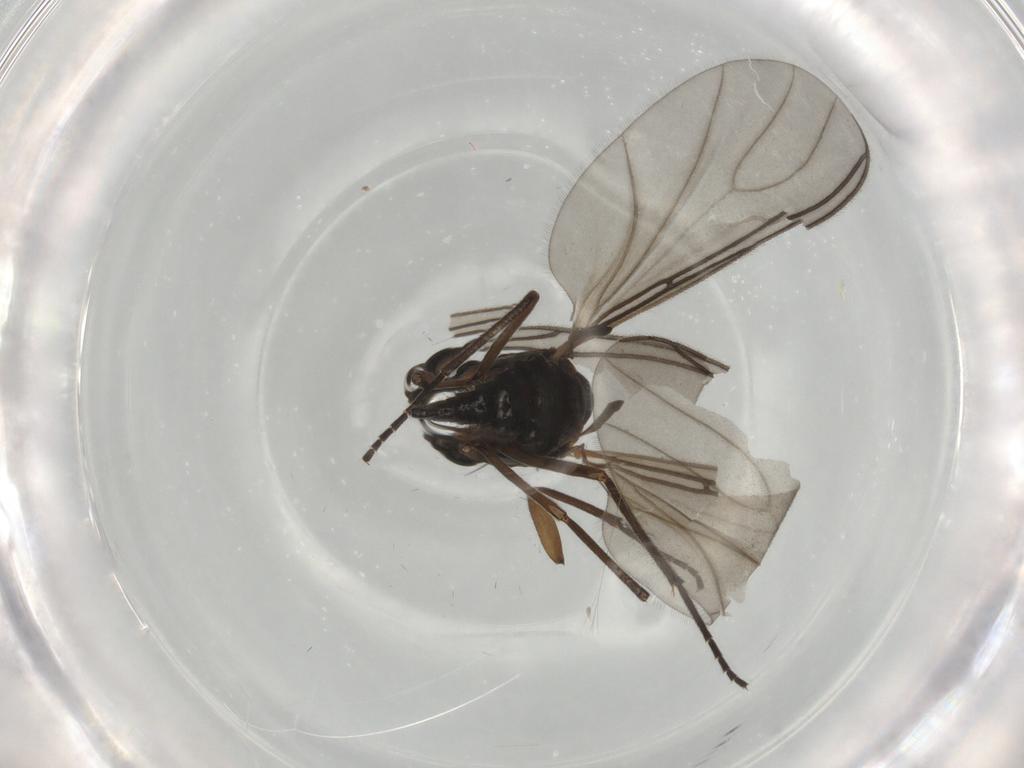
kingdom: Animalia
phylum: Arthropoda
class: Insecta
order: Diptera
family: Sciaridae
